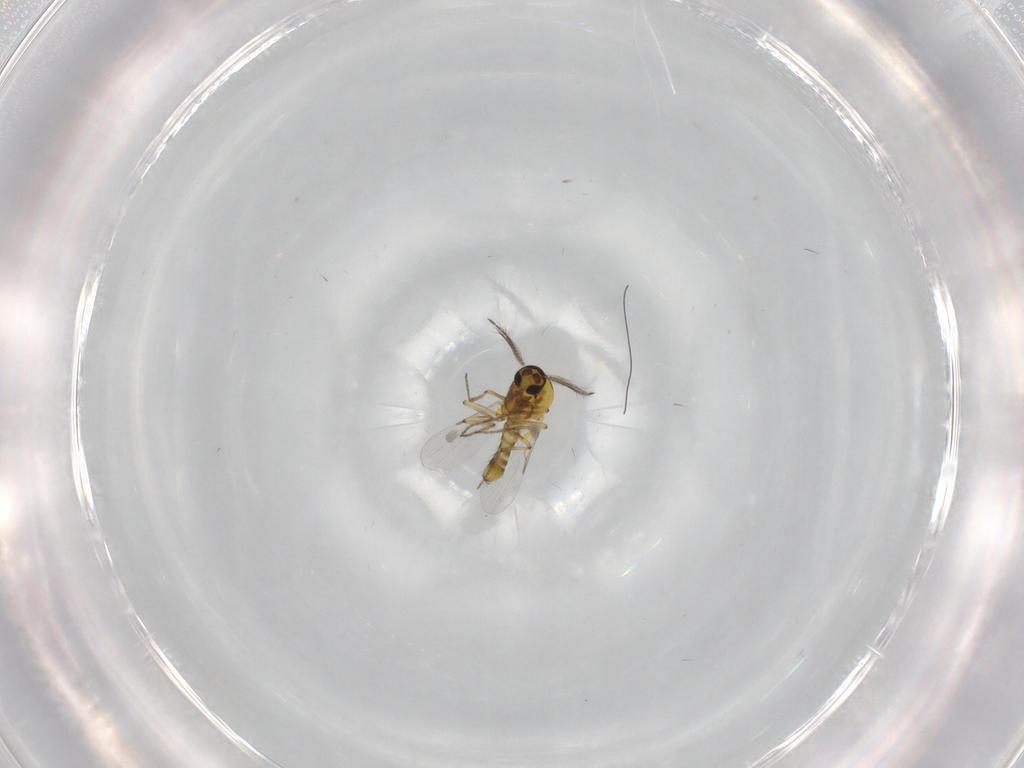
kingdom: Animalia
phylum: Arthropoda
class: Insecta
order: Diptera
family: Ceratopogonidae
